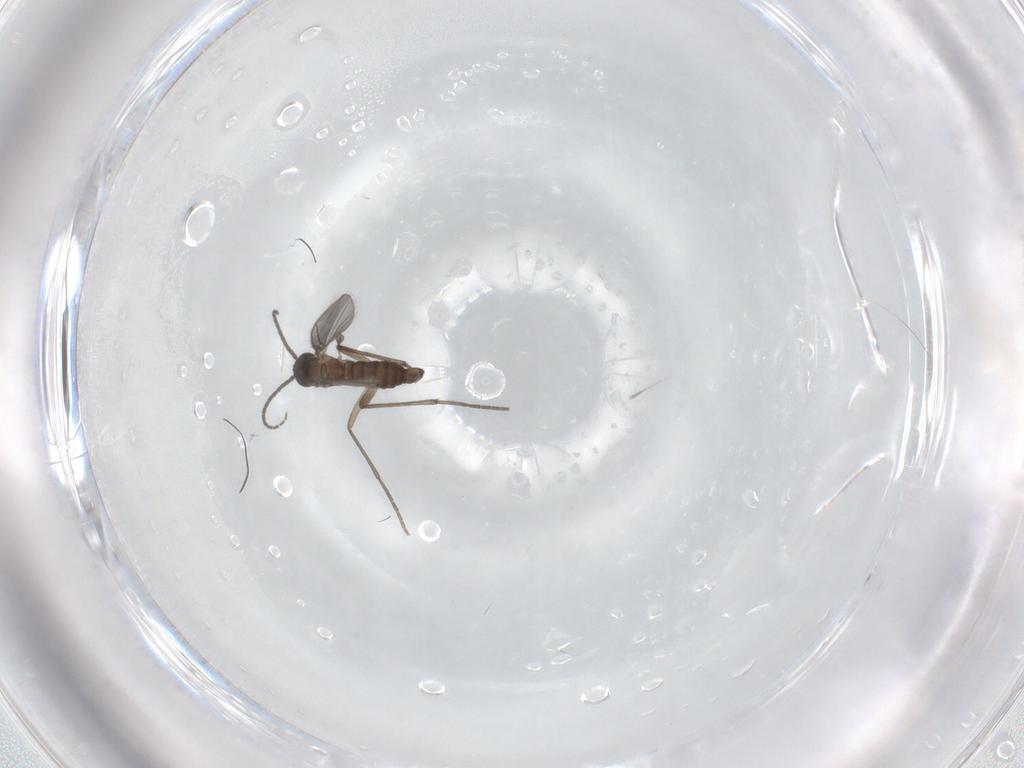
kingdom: Animalia
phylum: Arthropoda
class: Insecta
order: Diptera
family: Sciaridae
